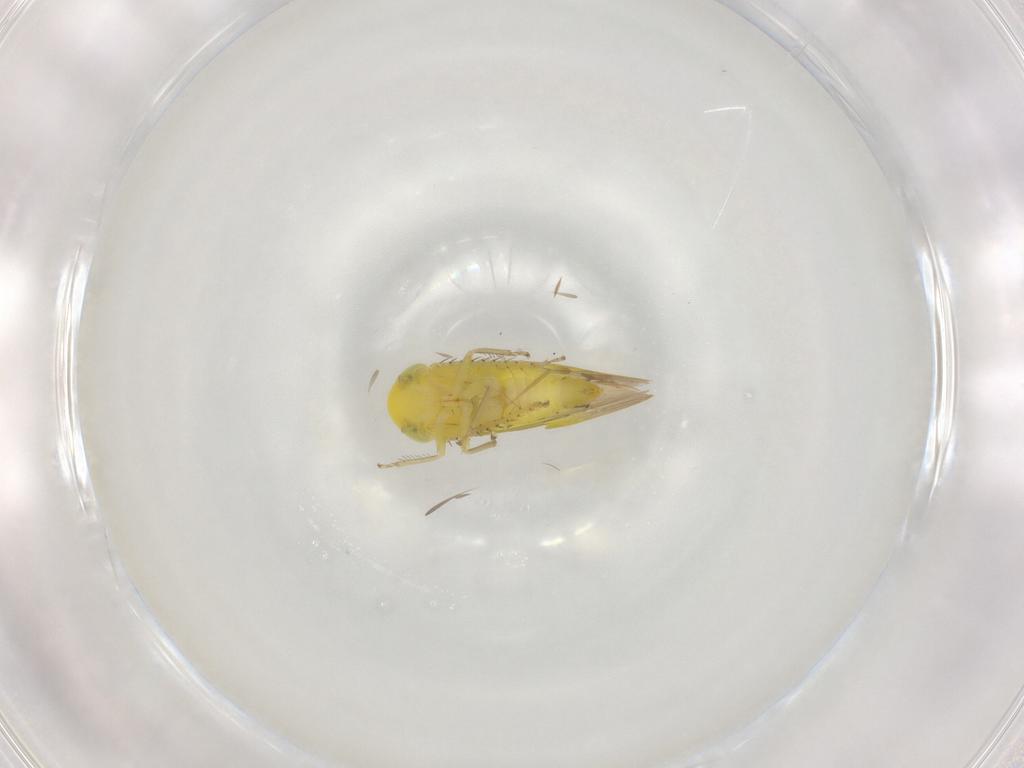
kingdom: Animalia
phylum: Arthropoda
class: Insecta
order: Hemiptera
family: Cicadellidae
